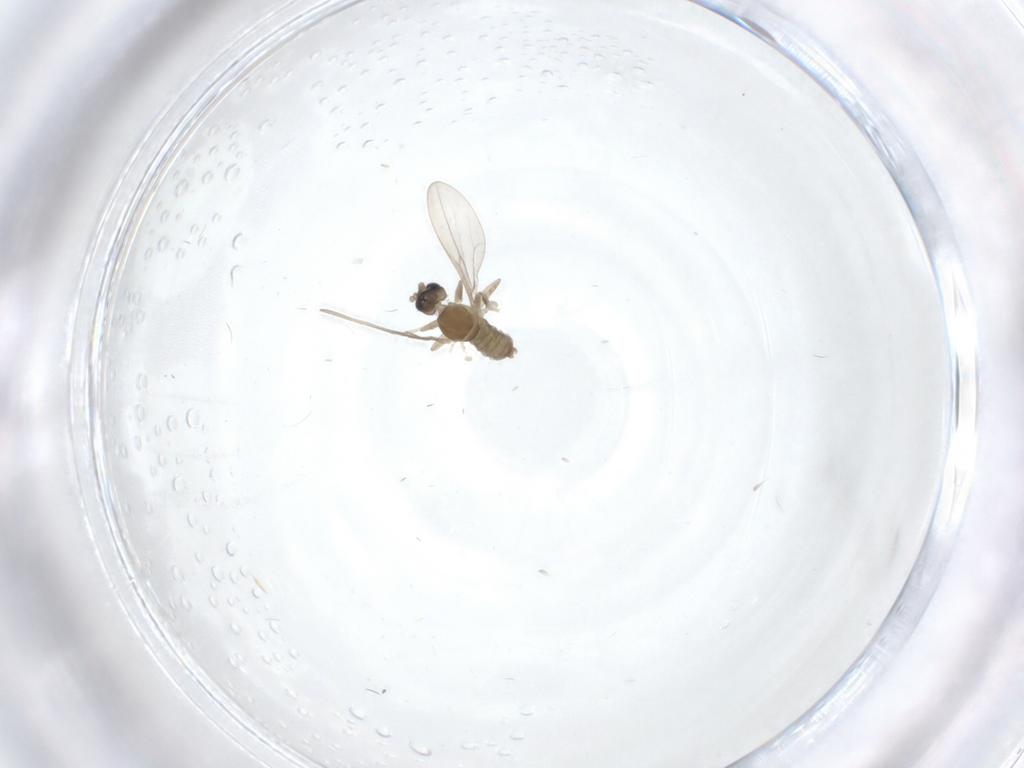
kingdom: Animalia
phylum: Arthropoda
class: Insecta
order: Diptera
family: Cecidomyiidae
